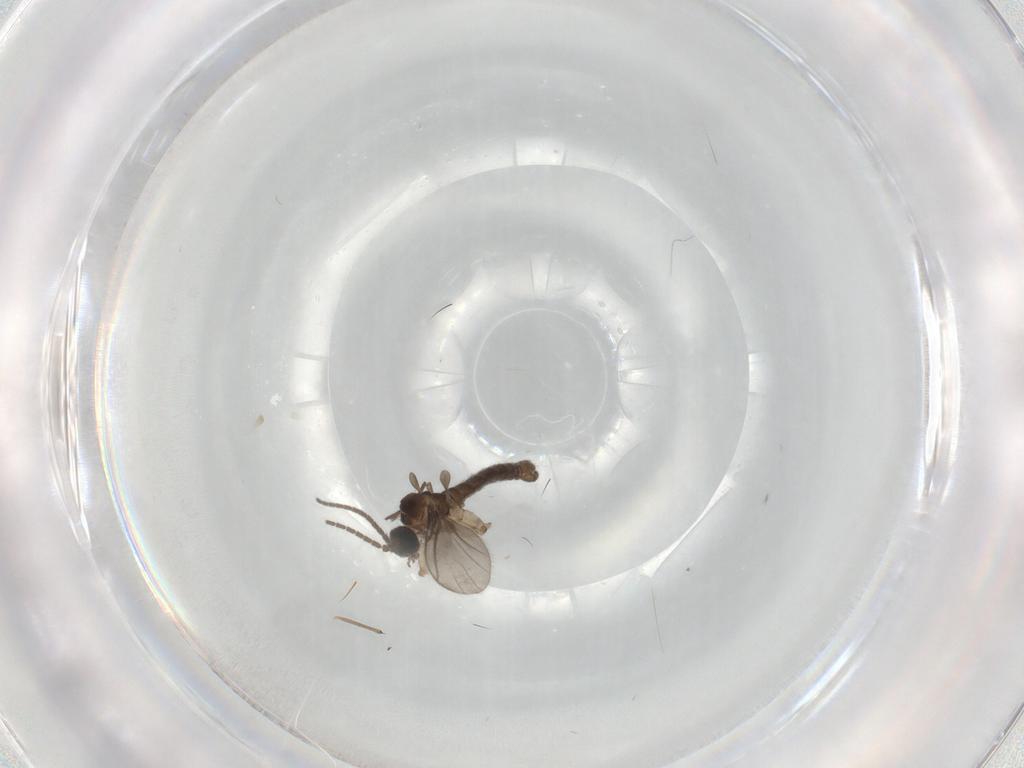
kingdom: Animalia
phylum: Arthropoda
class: Insecta
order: Diptera
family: Sciaridae
